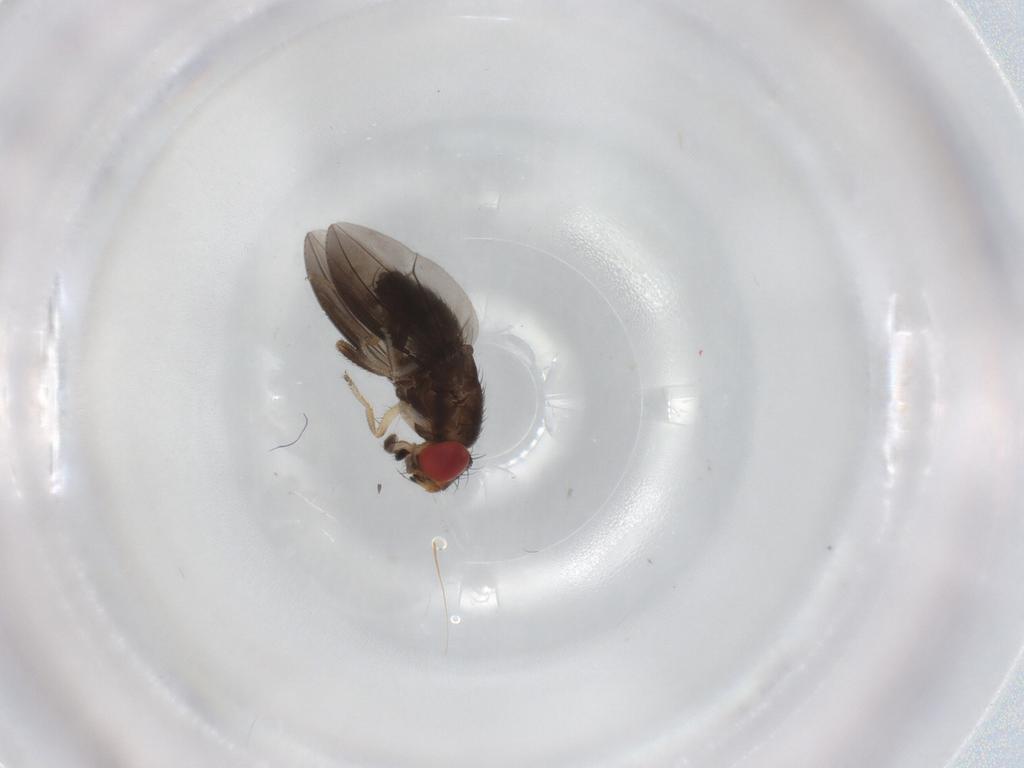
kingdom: Animalia
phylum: Arthropoda
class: Insecta
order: Diptera
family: Drosophilidae
